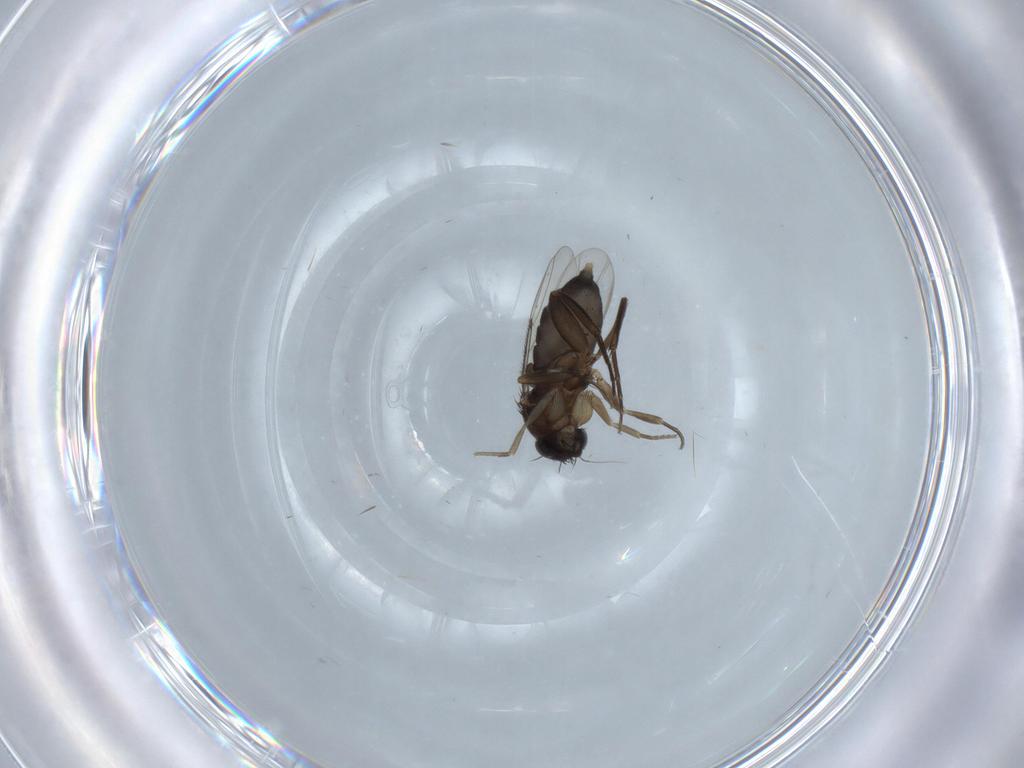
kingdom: Animalia
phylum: Arthropoda
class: Insecta
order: Diptera
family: Phoridae
